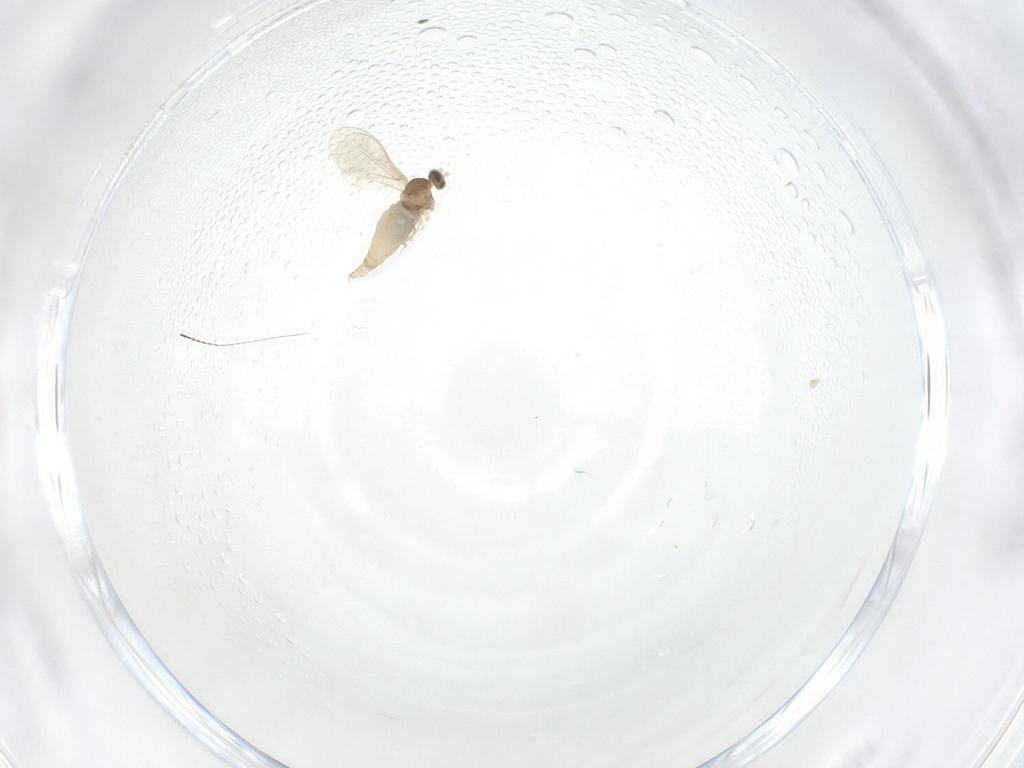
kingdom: Animalia
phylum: Arthropoda
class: Insecta
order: Diptera
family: Cecidomyiidae
